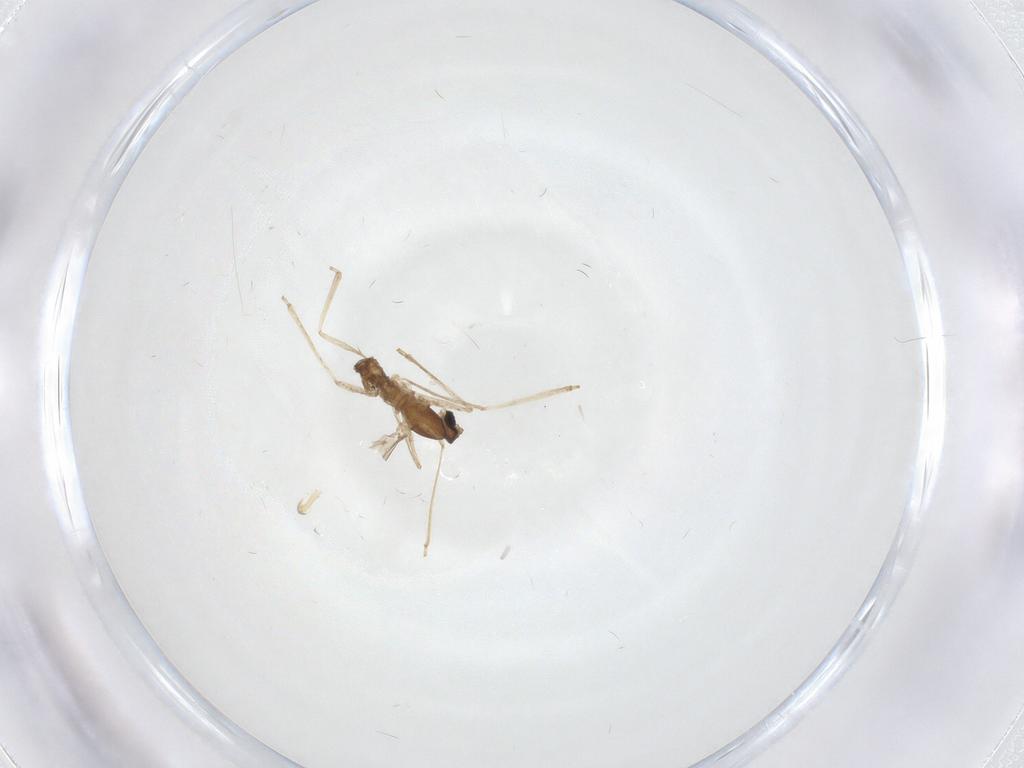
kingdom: Animalia
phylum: Arthropoda
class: Insecta
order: Diptera
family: Cecidomyiidae
